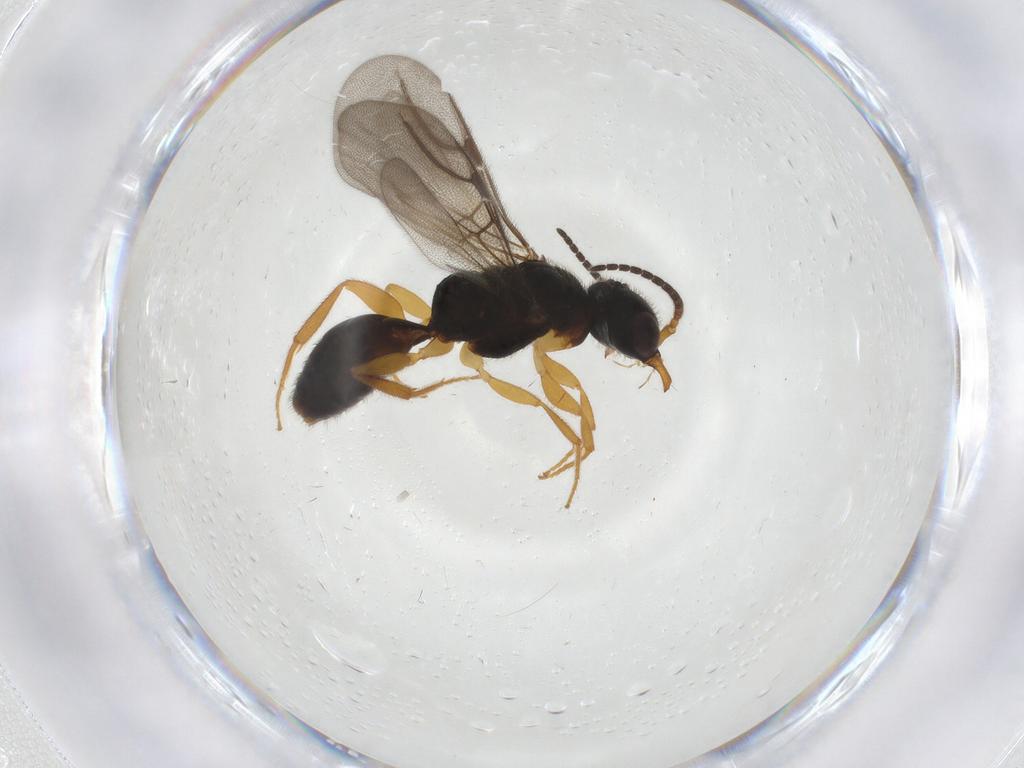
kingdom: Animalia
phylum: Arthropoda
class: Insecta
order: Hymenoptera
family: Bethylidae
